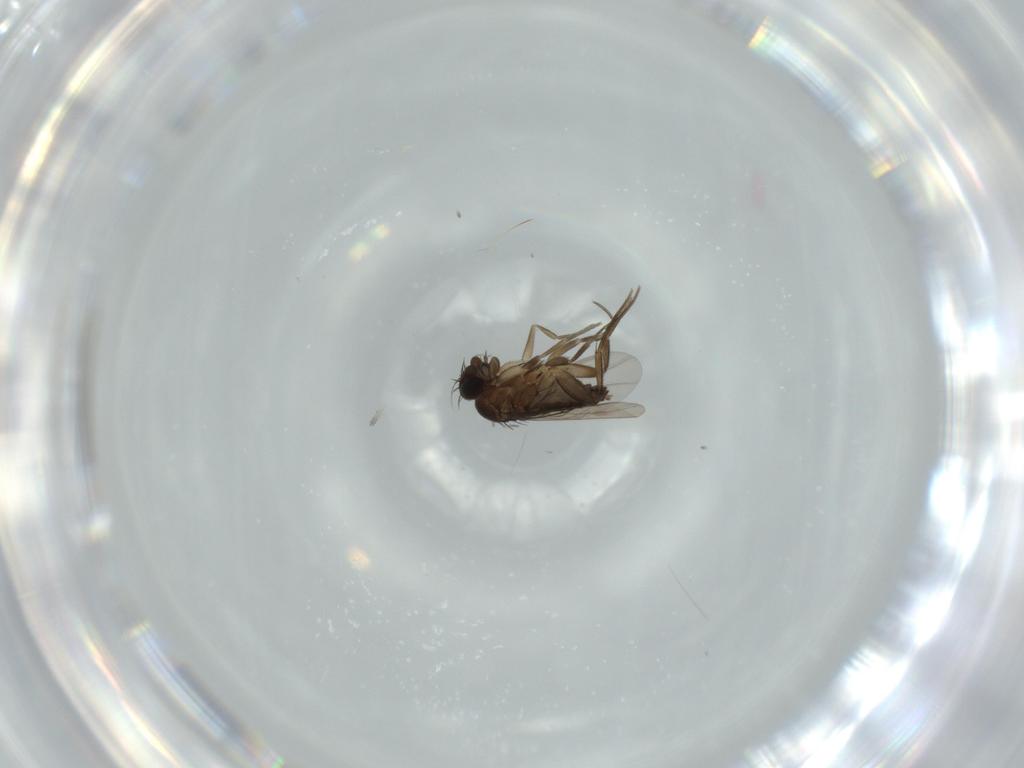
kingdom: Animalia
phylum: Arthropoda
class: Insecta
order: Diptera
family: Phoridae
